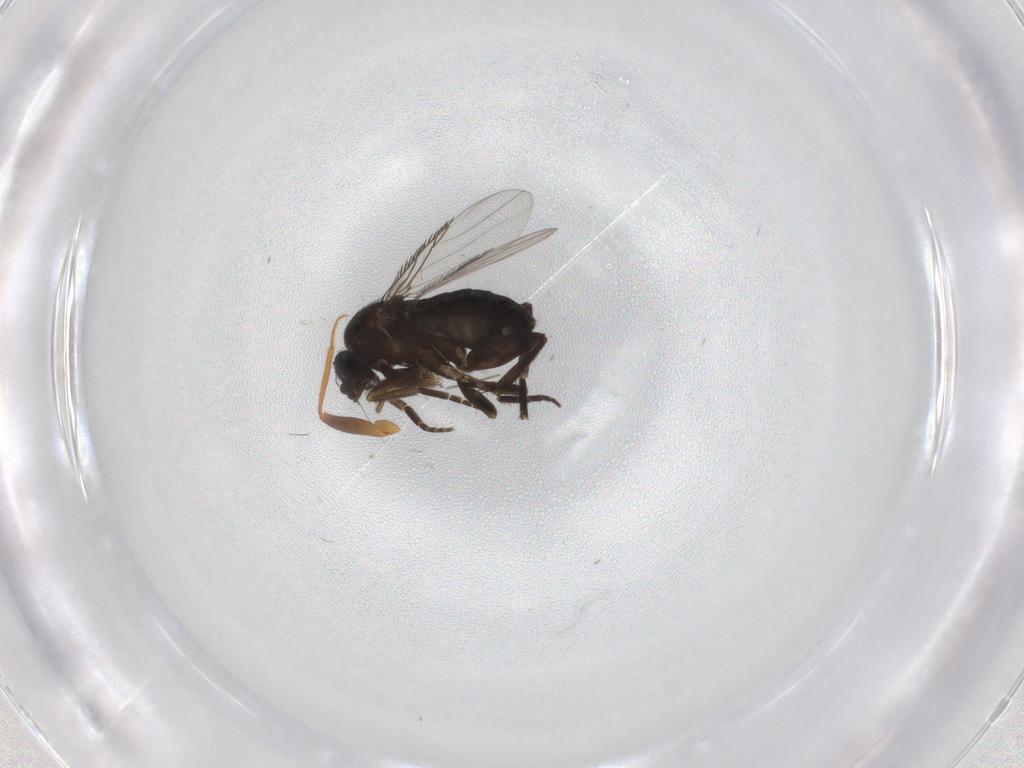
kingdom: Animalia
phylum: Arthropoda
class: Insecta
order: Diptera
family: Phoridae
